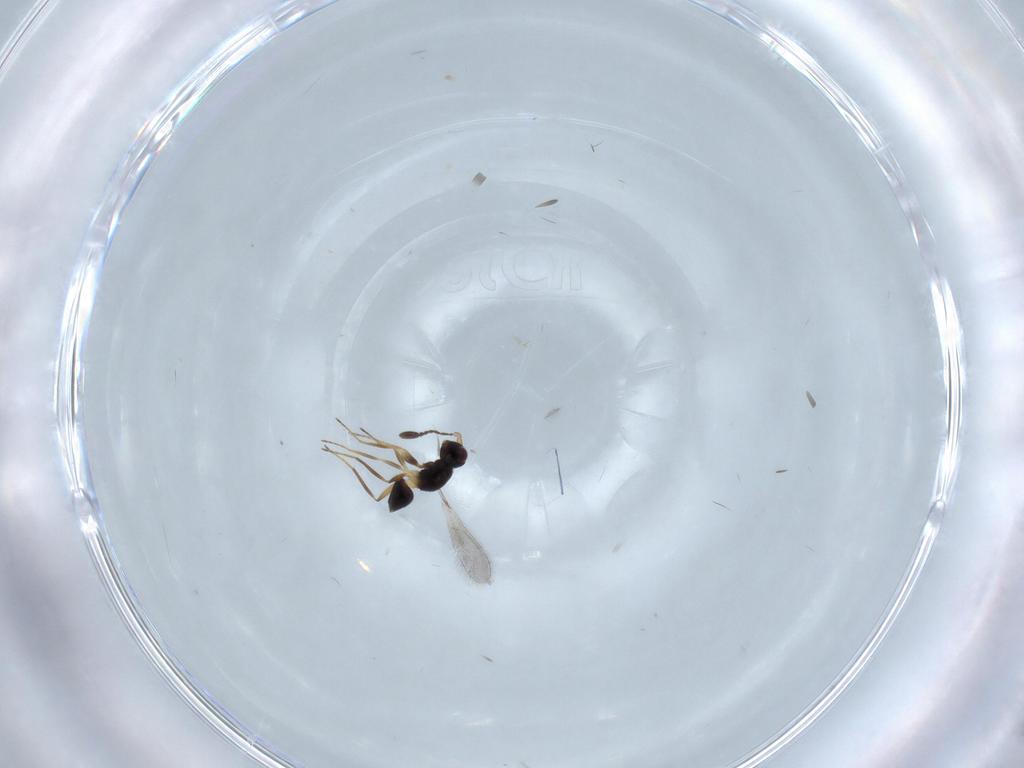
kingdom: Animalia
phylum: Arthropoda
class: Insecta
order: Hymenoptera
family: Mymaridae
